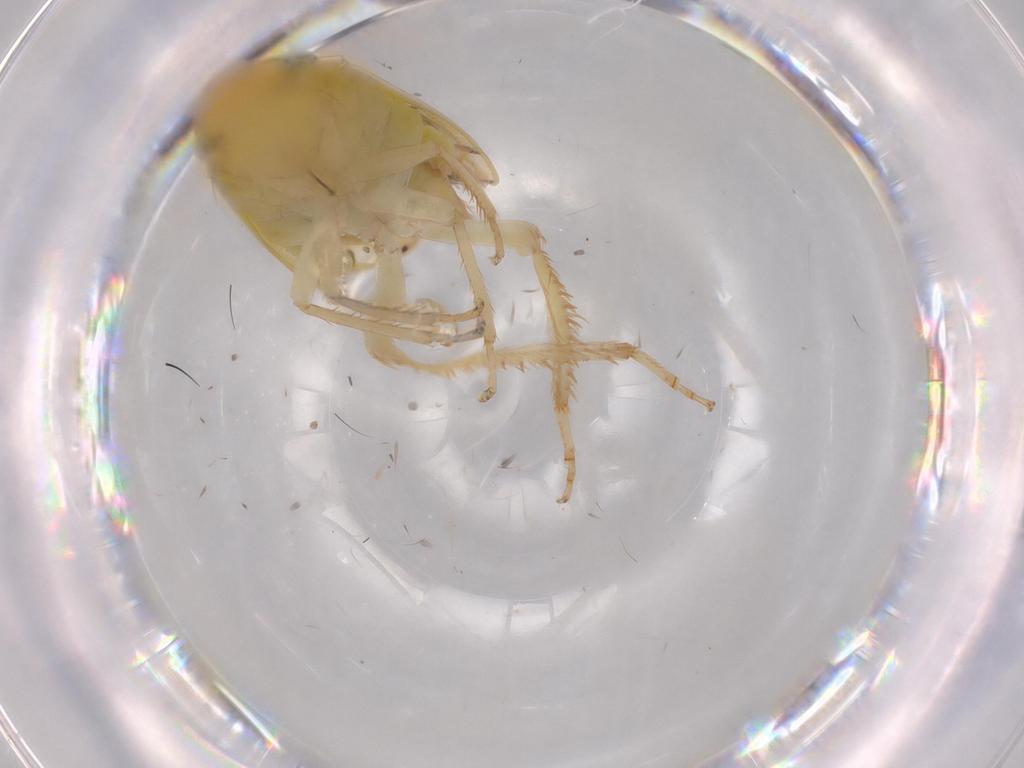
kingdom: Animalia
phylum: Arthropoda
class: Insecta
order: Hemiptera
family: Cicadellidae
